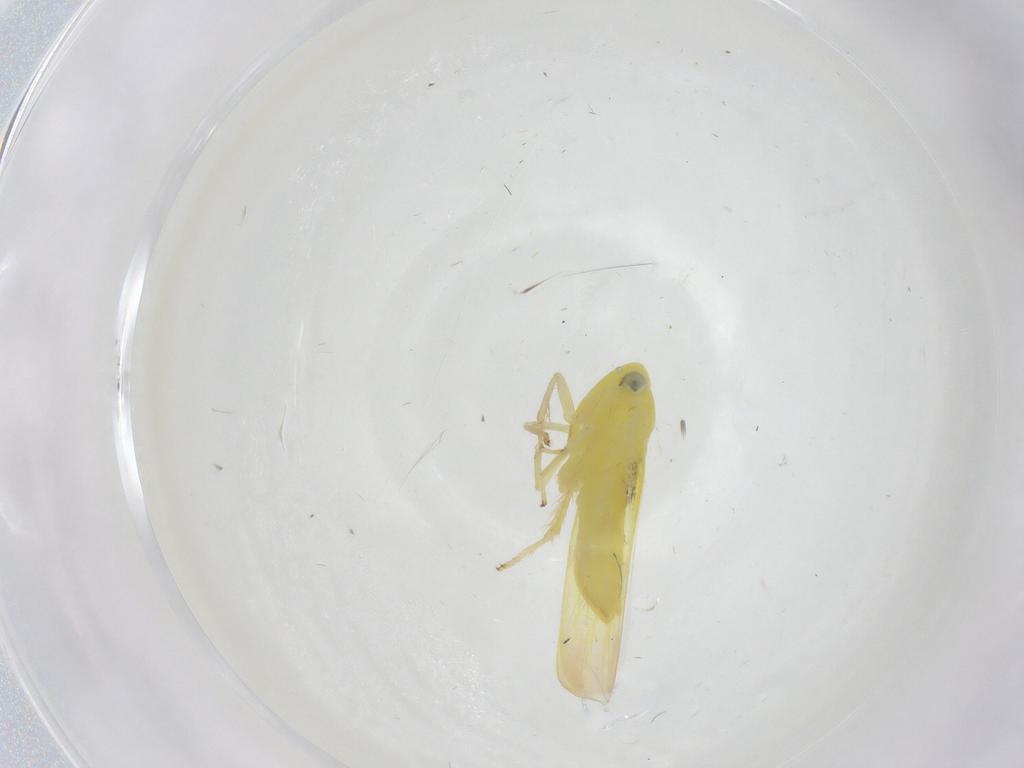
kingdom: Animalia
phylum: Arthropoda
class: Insecta
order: Hemiptera
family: Cicadellidae
